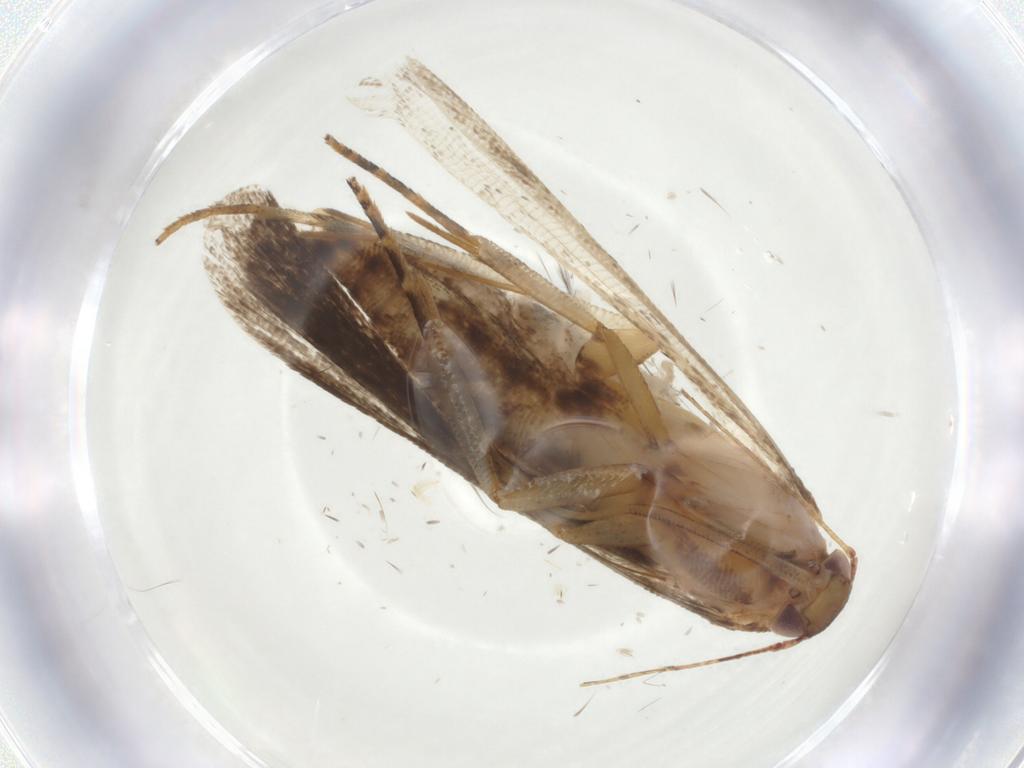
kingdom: Animalia
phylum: Arthropoda
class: Insecta
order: Lepidoptera
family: Gelechiidae
